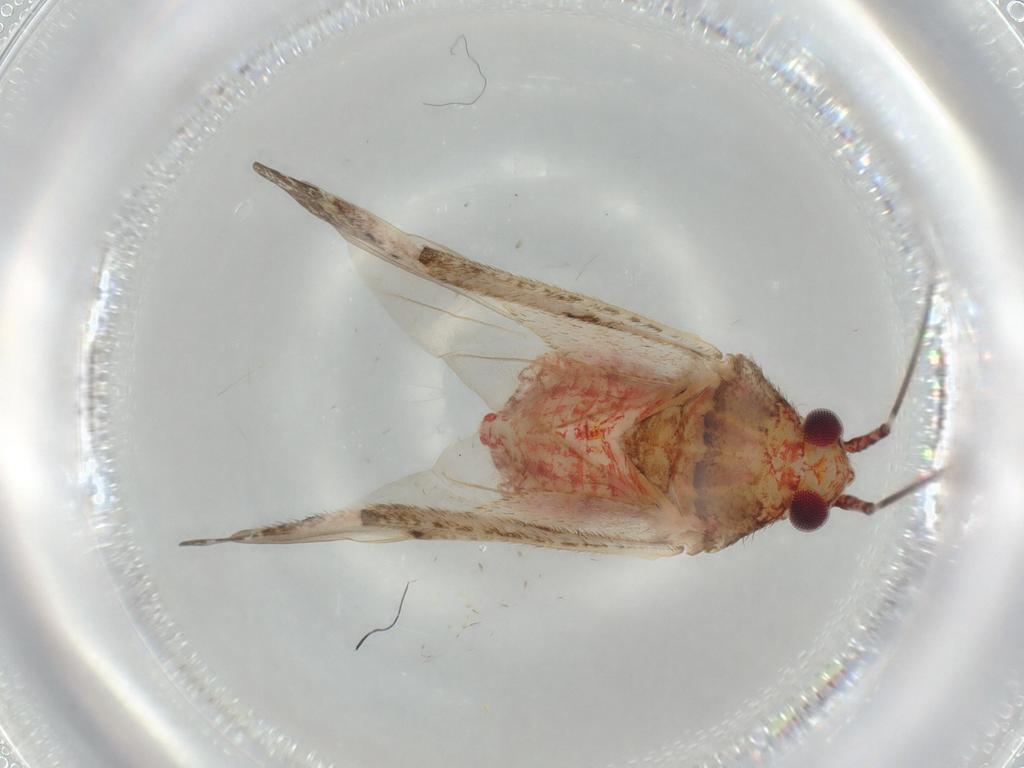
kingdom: Animalia
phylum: Arthropoda
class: Insecta
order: Hemiptera
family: Miridae
